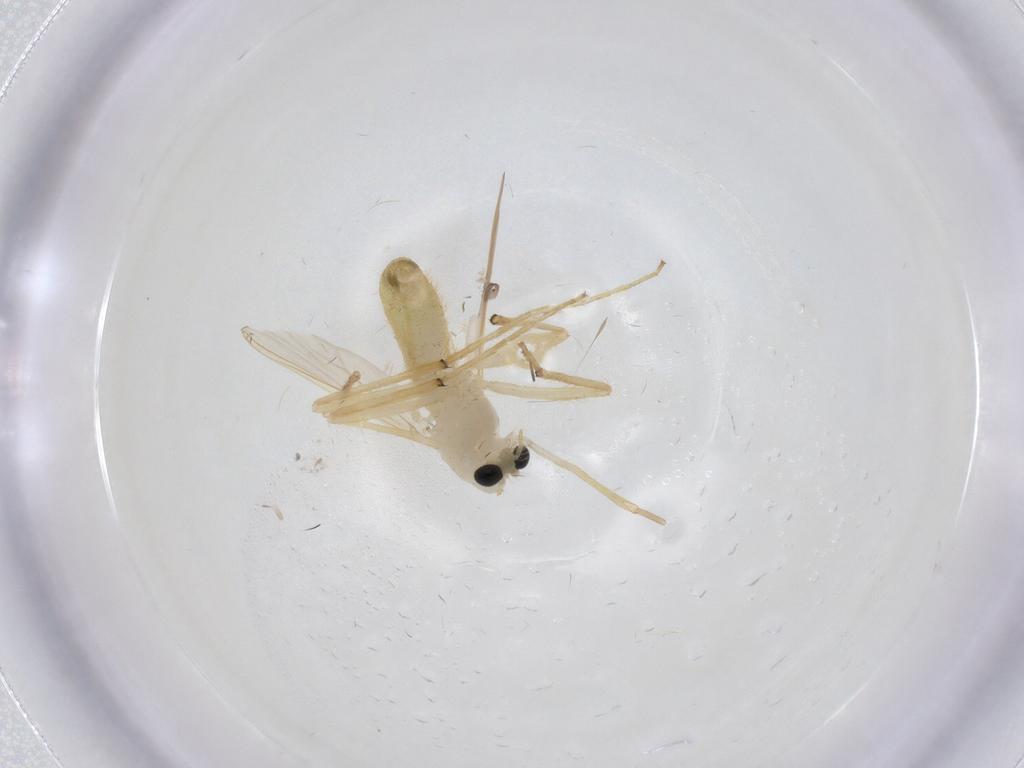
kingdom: Animalia
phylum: Arthropoda
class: Insecta
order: Diptera
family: Chironomidae
